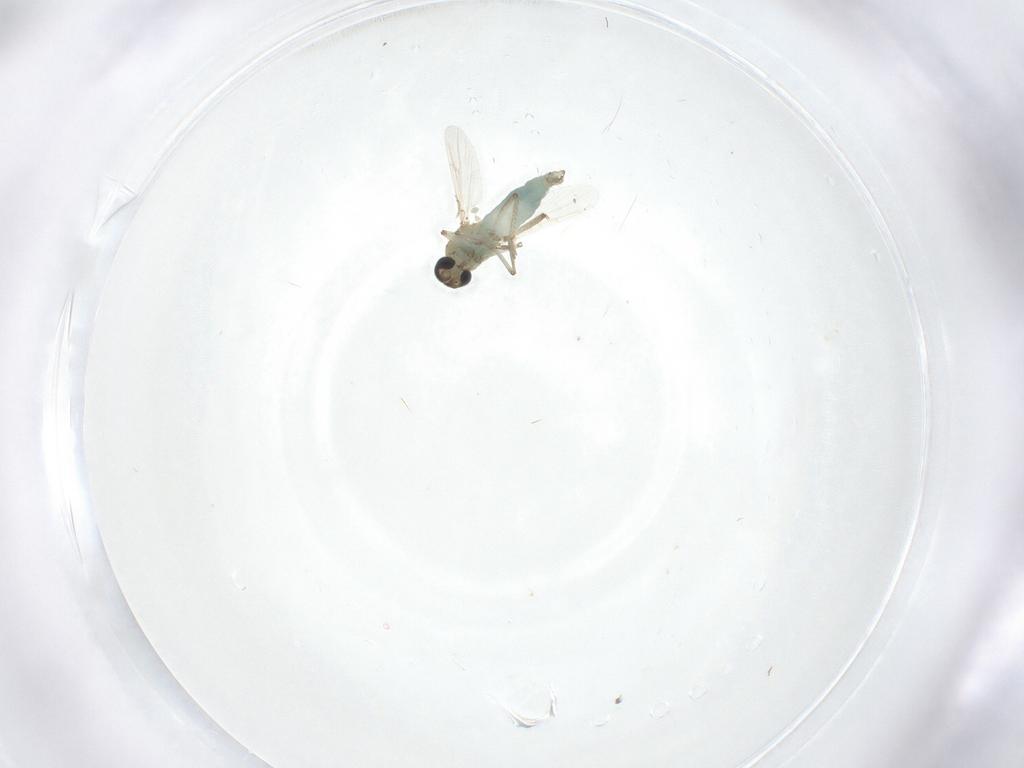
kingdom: Animalia
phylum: Arthropoda
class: Insecta
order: Diptera
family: Ceratopogonidae
